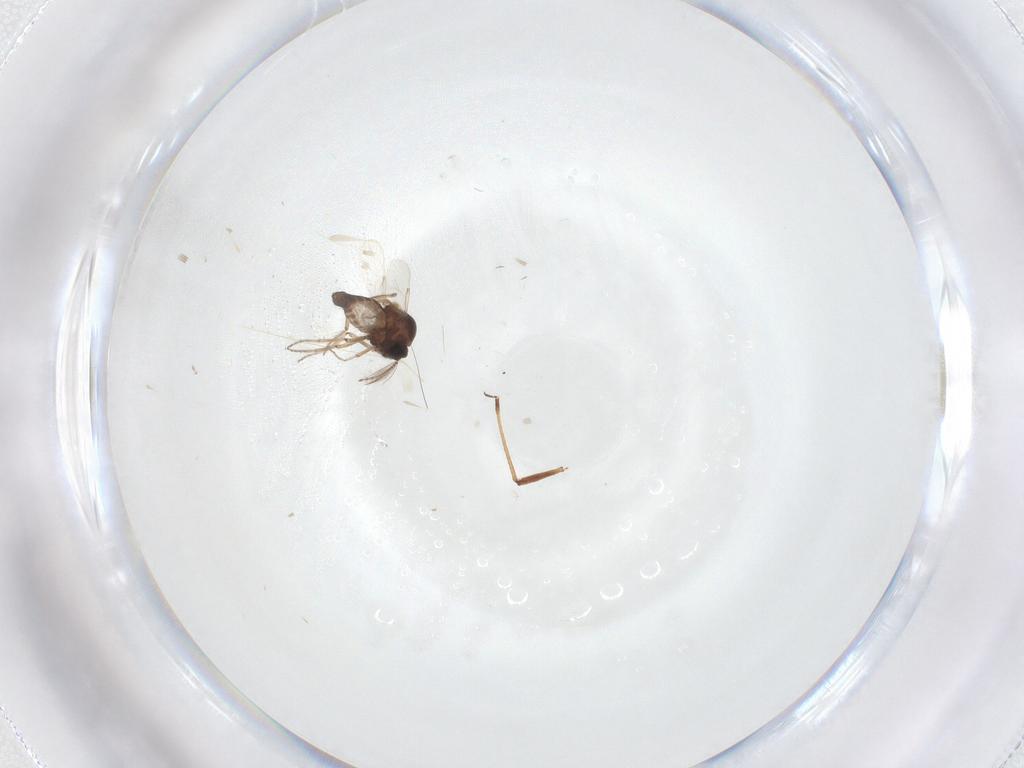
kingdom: Animalia
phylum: Arthropoda
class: Insecta
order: Diptera
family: Ceratopogonidae
